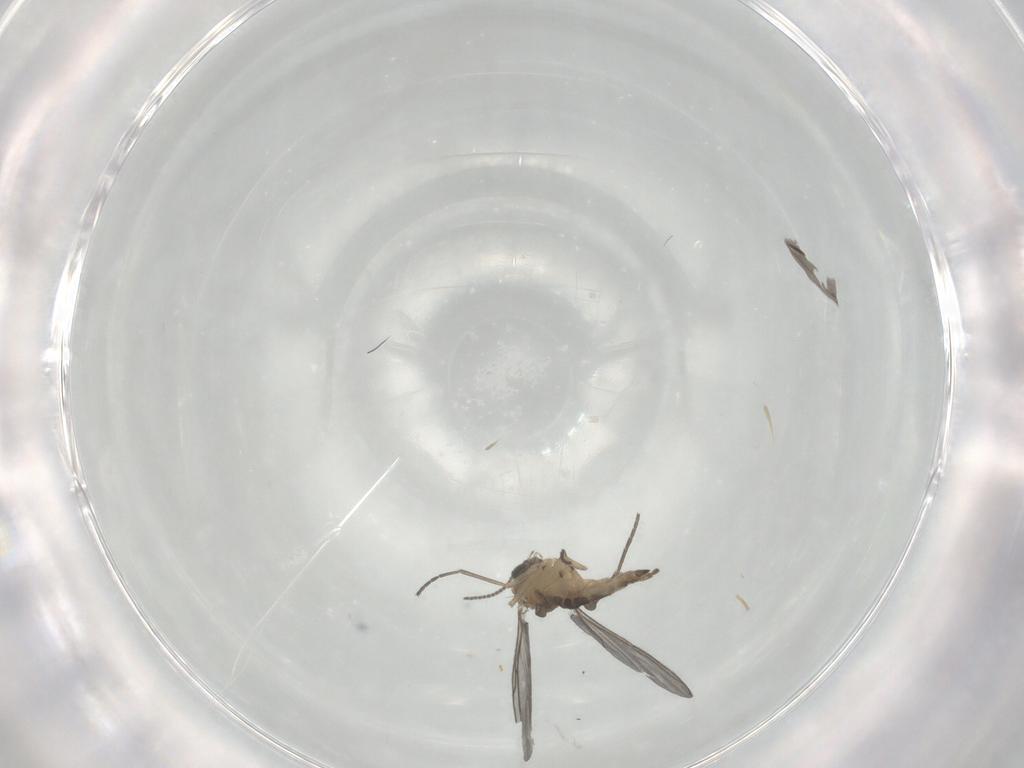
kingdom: Animalia
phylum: Arthropoda
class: Insecta
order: Diptera
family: Sciaridae
